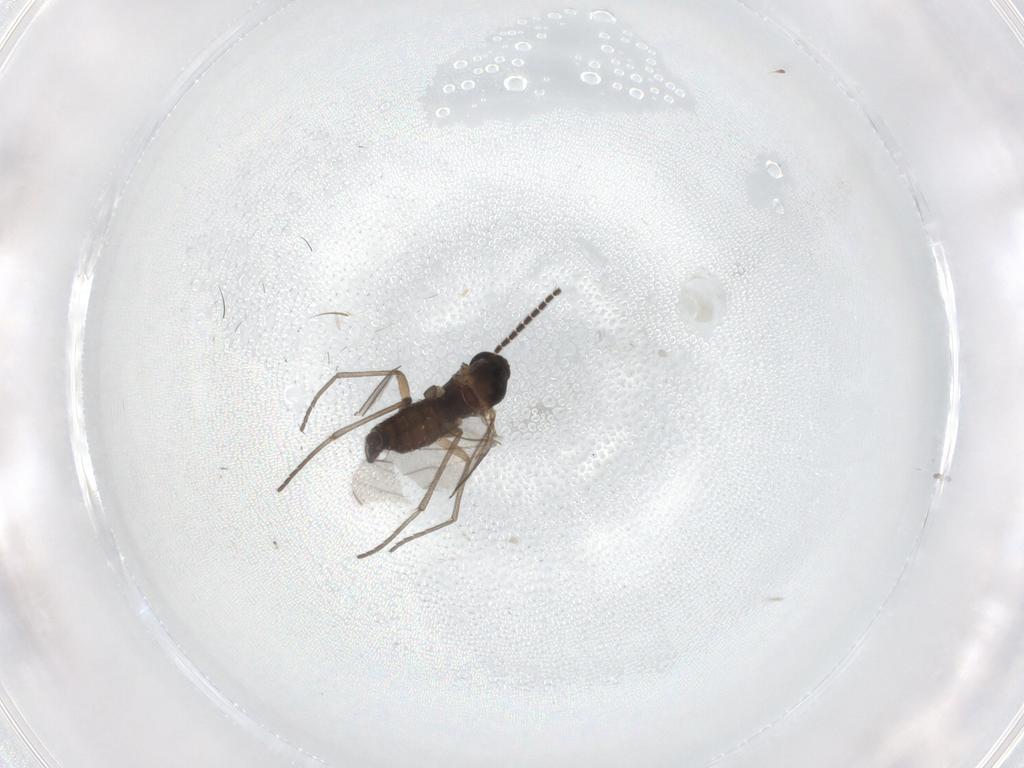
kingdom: Animalia
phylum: Arthropoda
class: Insecta
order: Diptera
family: Sciaridae
